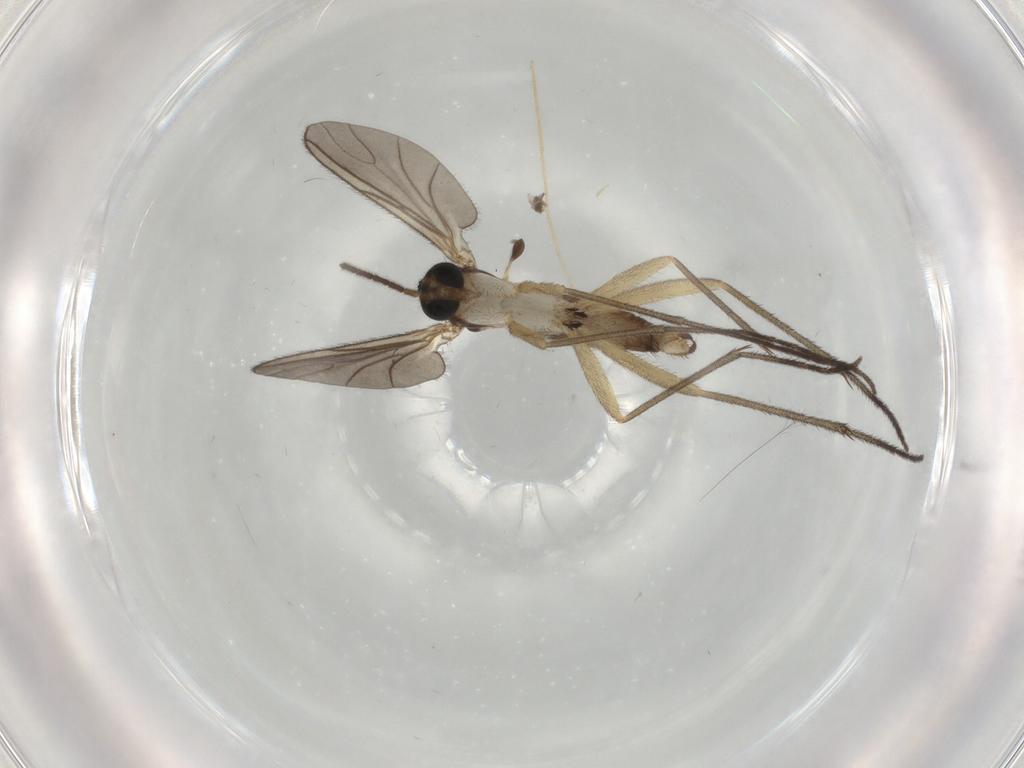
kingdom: Animalia
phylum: Arthropoda
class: Insecta
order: Diptera
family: Sciaridae
